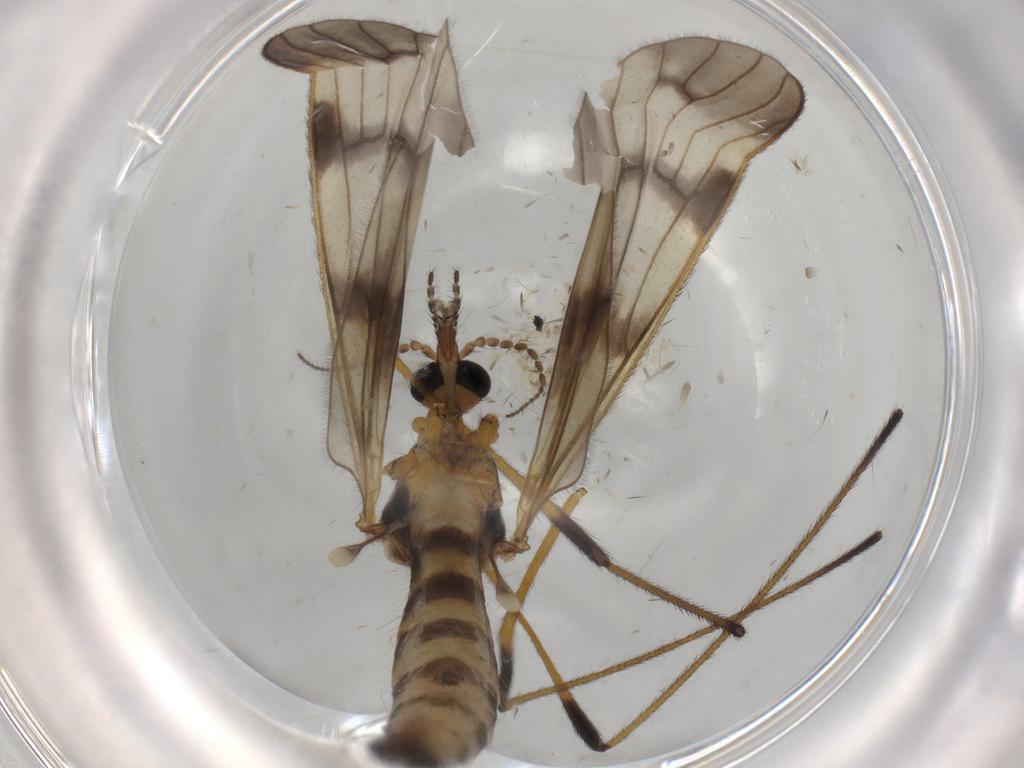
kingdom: Animalia
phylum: Arthropoda
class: Insecta
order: Diptera
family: Limoniidae
